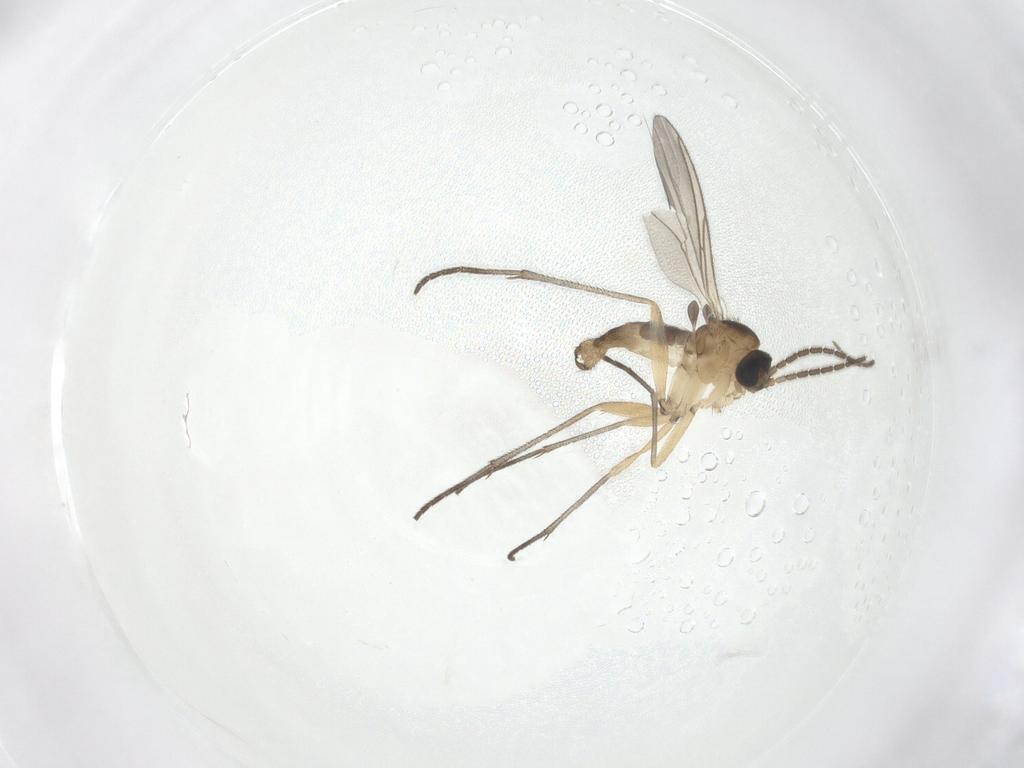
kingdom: Animalia
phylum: Arthropoda
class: Insecta
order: Diptera
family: Sciaridae
